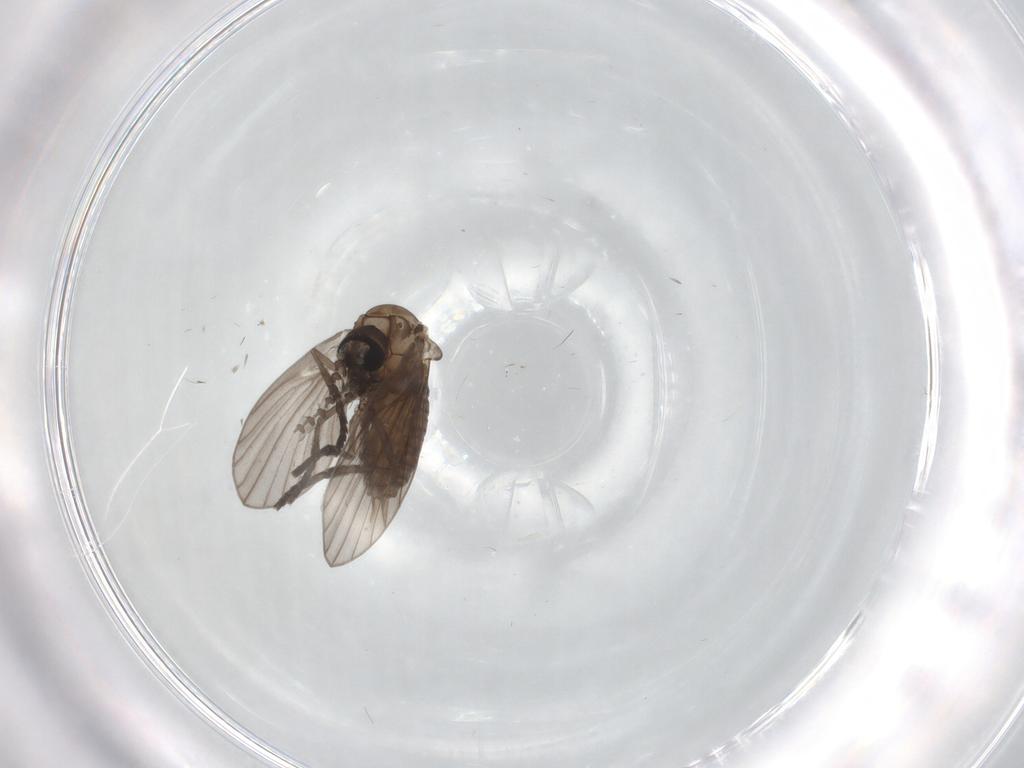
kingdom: Animalia
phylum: Arthropoda
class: Insecta
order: Diptera
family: Psychodidae
